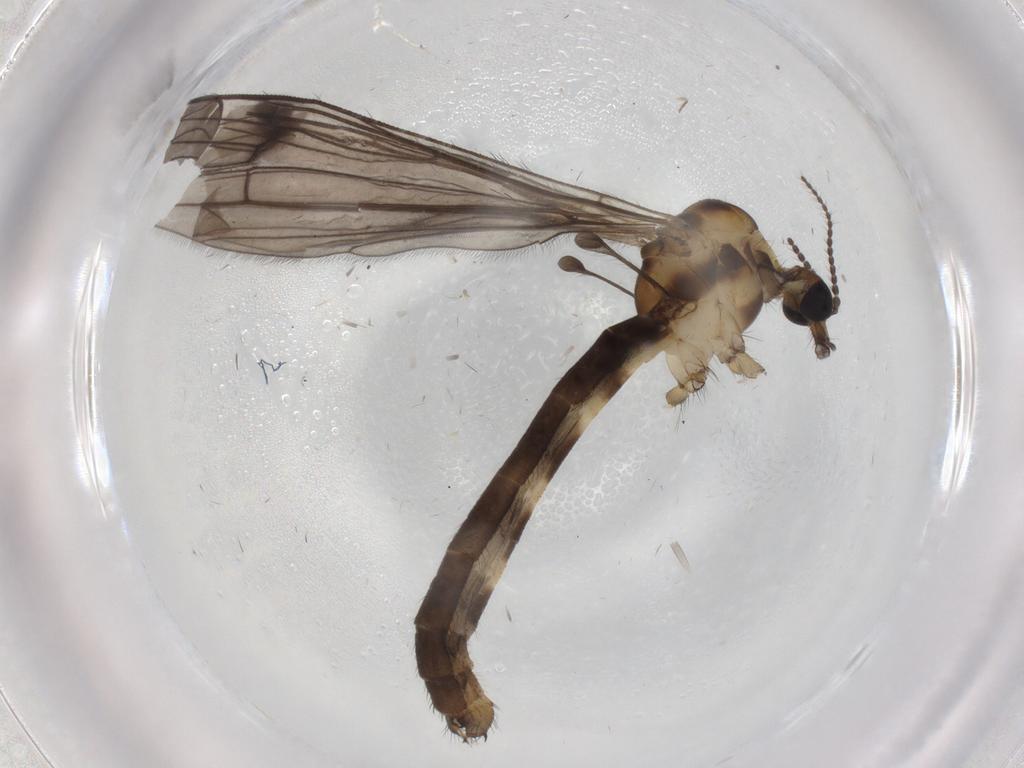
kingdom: Animalia
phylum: Arthropoda
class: Insecta
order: Diptera
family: Limoniidae
